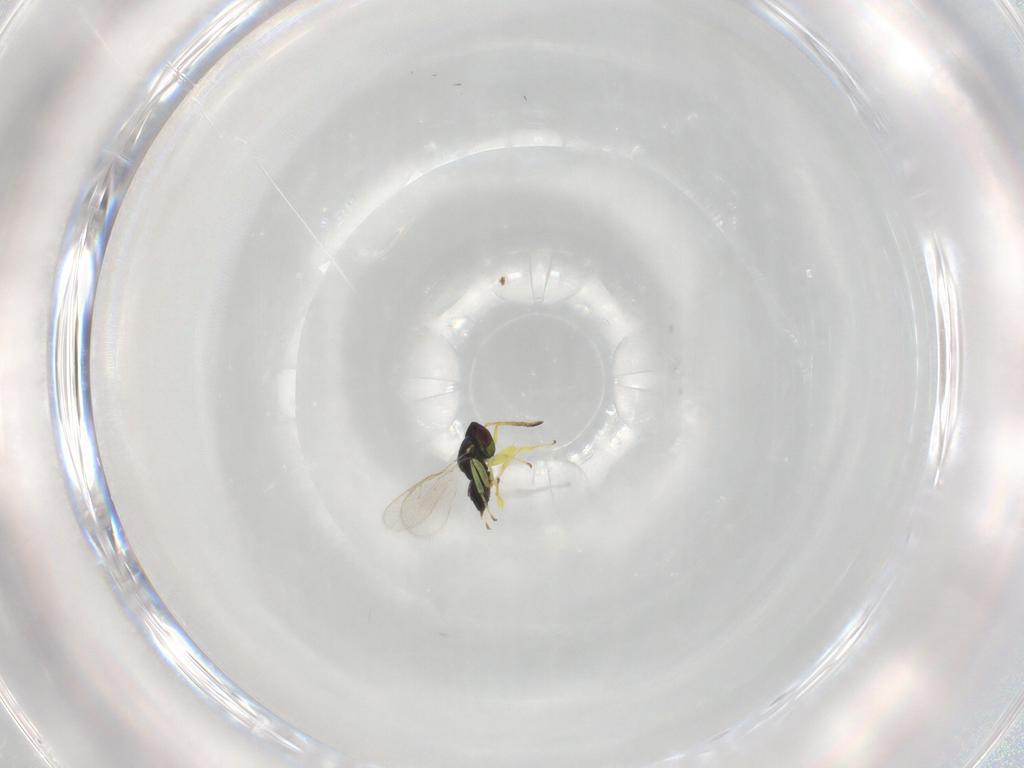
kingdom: Animalia
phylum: Arthropoda
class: Insecta
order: Hymenoptera
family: Pteromalidae
